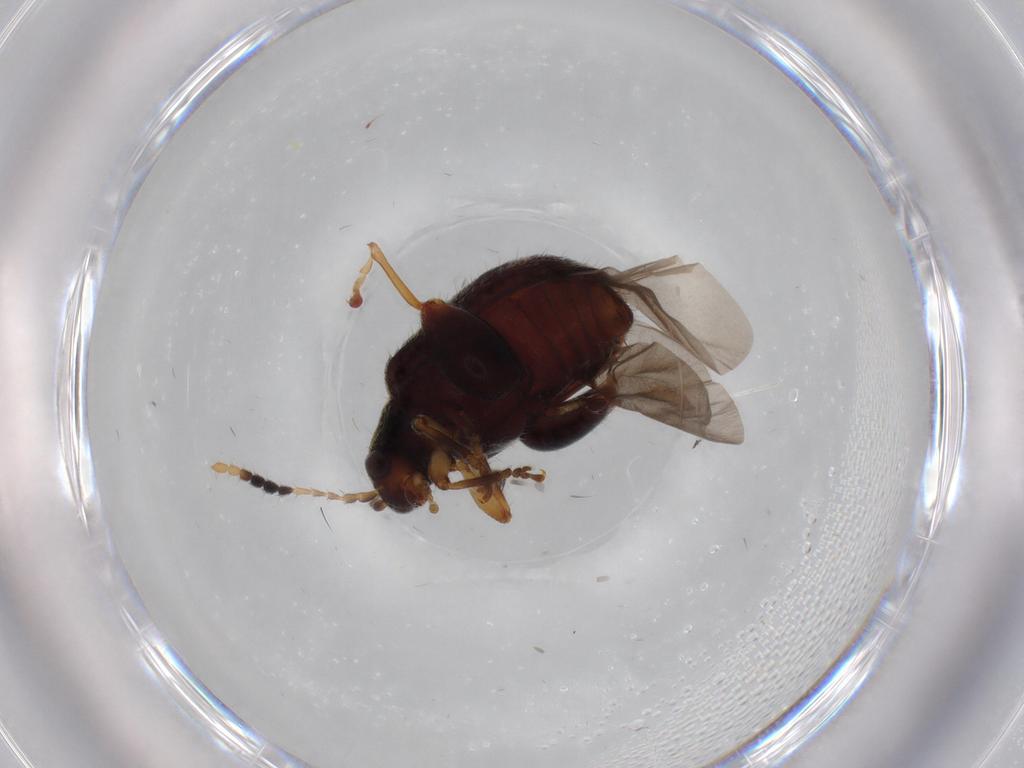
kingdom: Animalia
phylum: Arthropoda
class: Insecta
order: Coleoptera
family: Chrysomelidae
